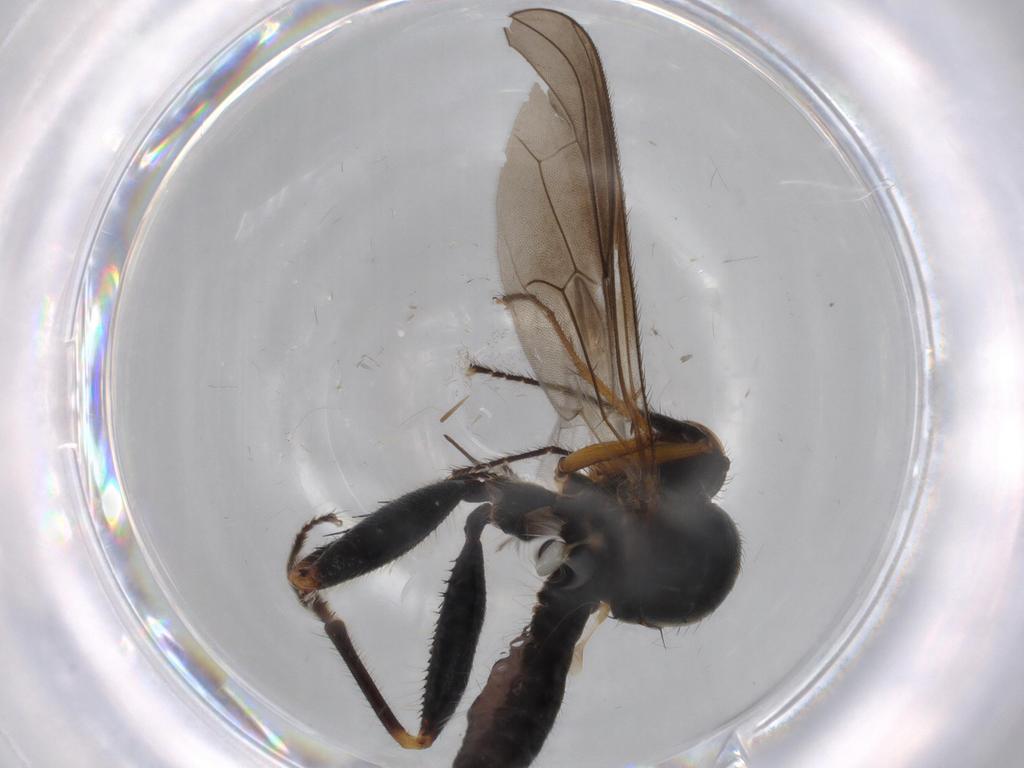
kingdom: Animalia
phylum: Arthropoda
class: Insecta
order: Diptera
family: Hybotidae
